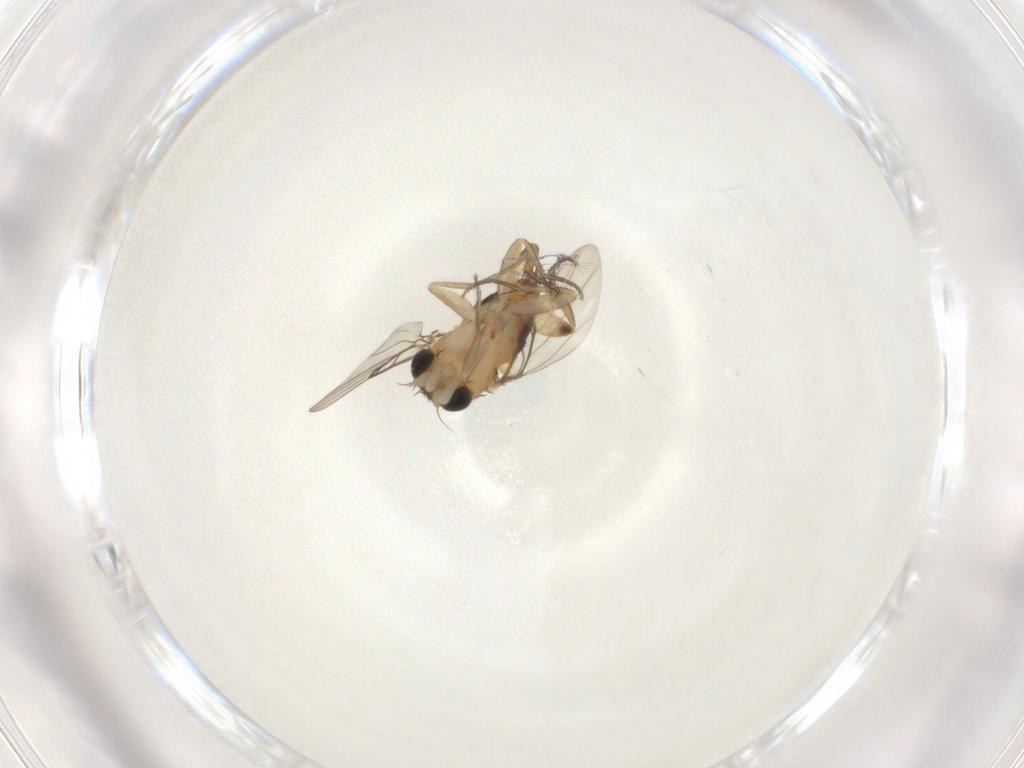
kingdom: Animalia
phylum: Arthropoda
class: Insecta
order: Diptera
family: Phoridae
